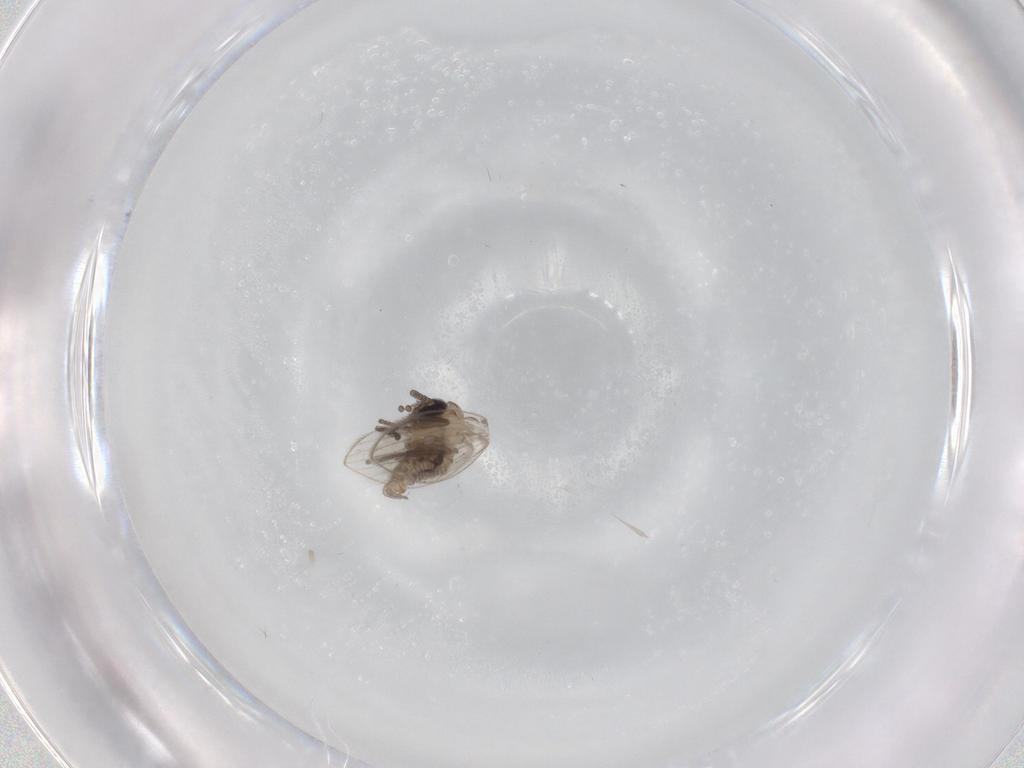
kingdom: Animalia
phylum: Arthropoda
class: Insecta
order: Diptera
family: Psychodidae
